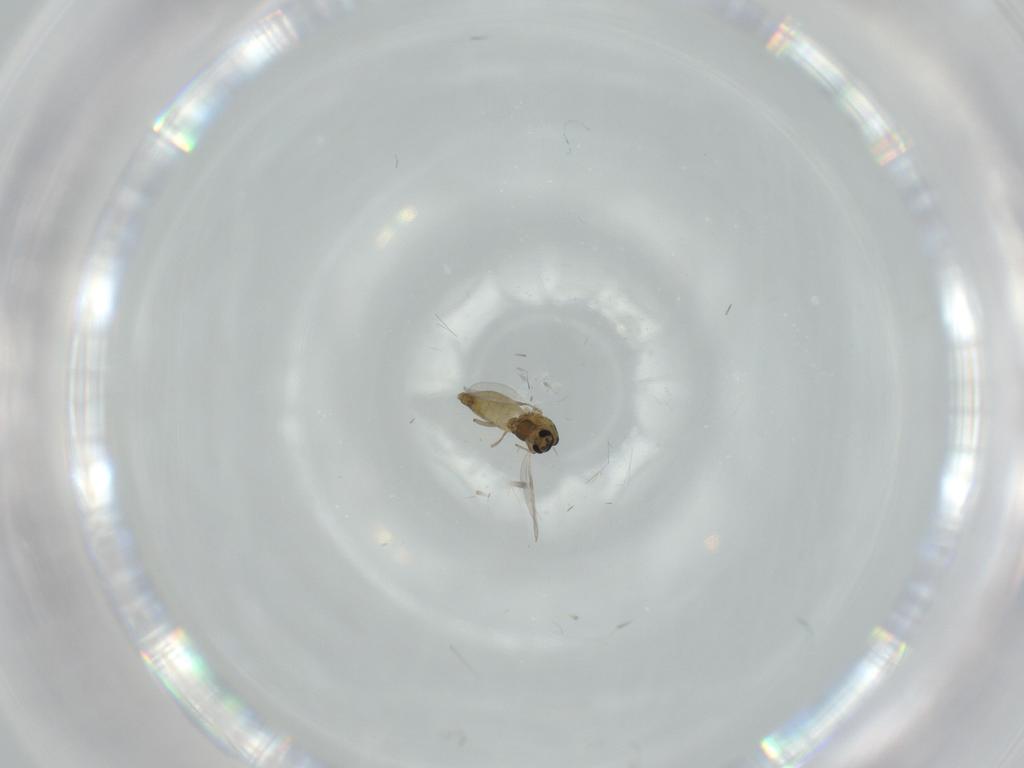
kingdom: Animalia
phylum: Arthropoda
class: Insecta
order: Diptera
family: Chironomidae
